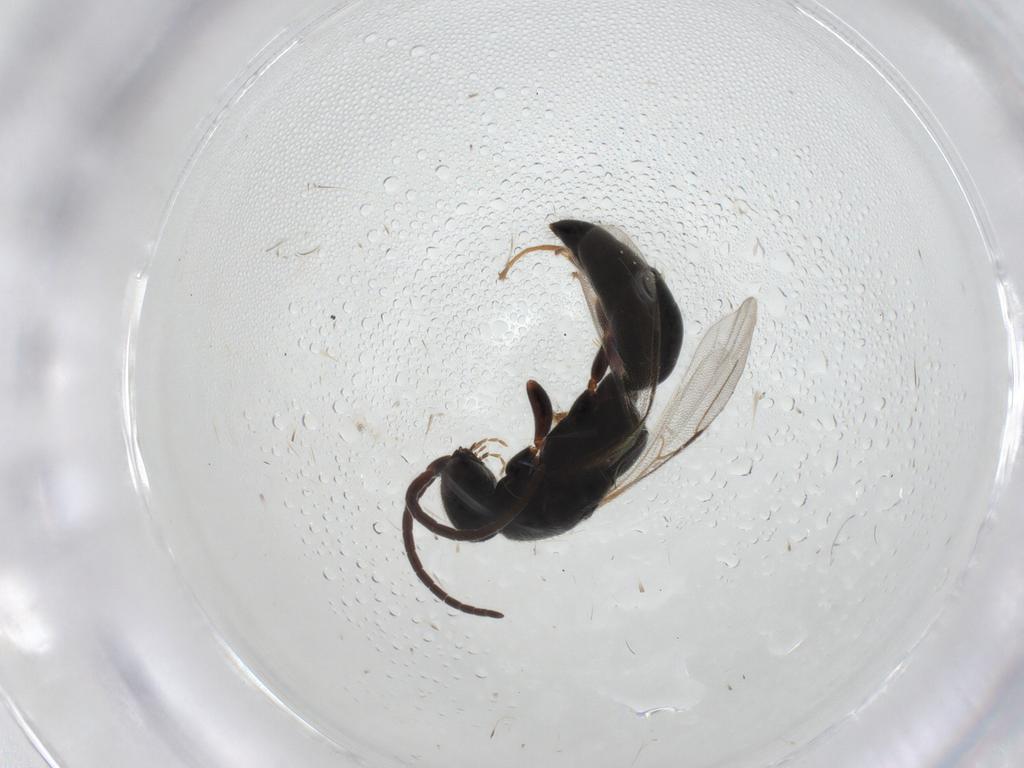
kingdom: Animalia
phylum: Arthropoda
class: Insecta
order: Hymenoptera
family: Bethylidae
